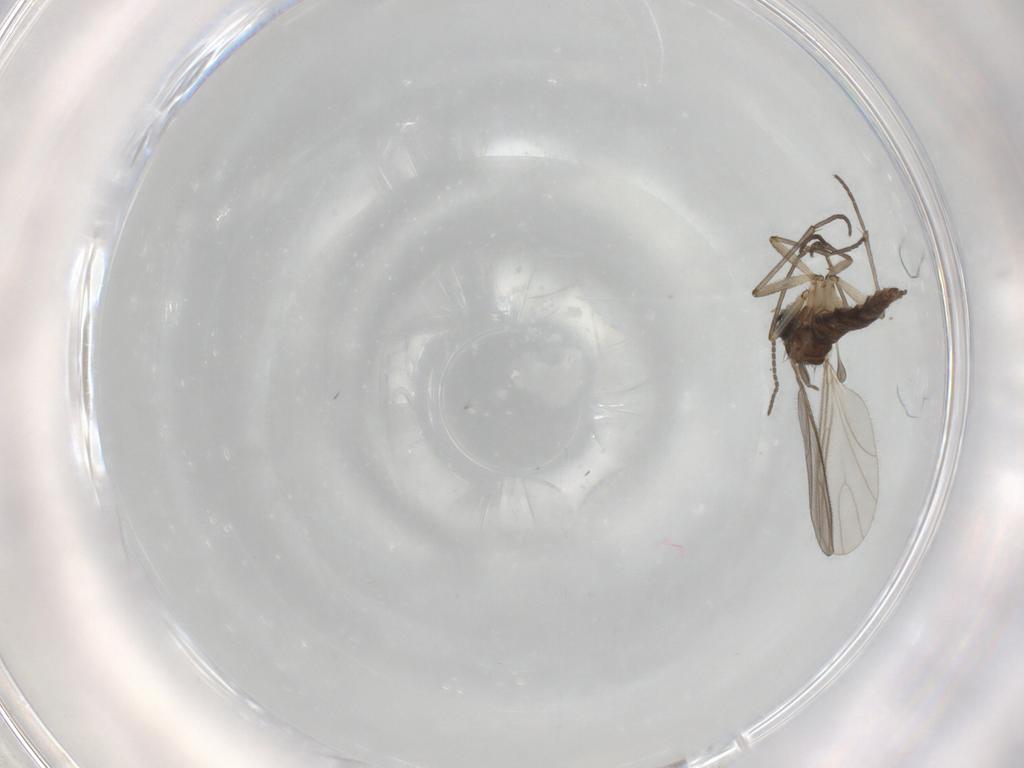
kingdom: Animalia
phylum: Arthropoda
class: Insecta
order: Diptera
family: Sciaridae
